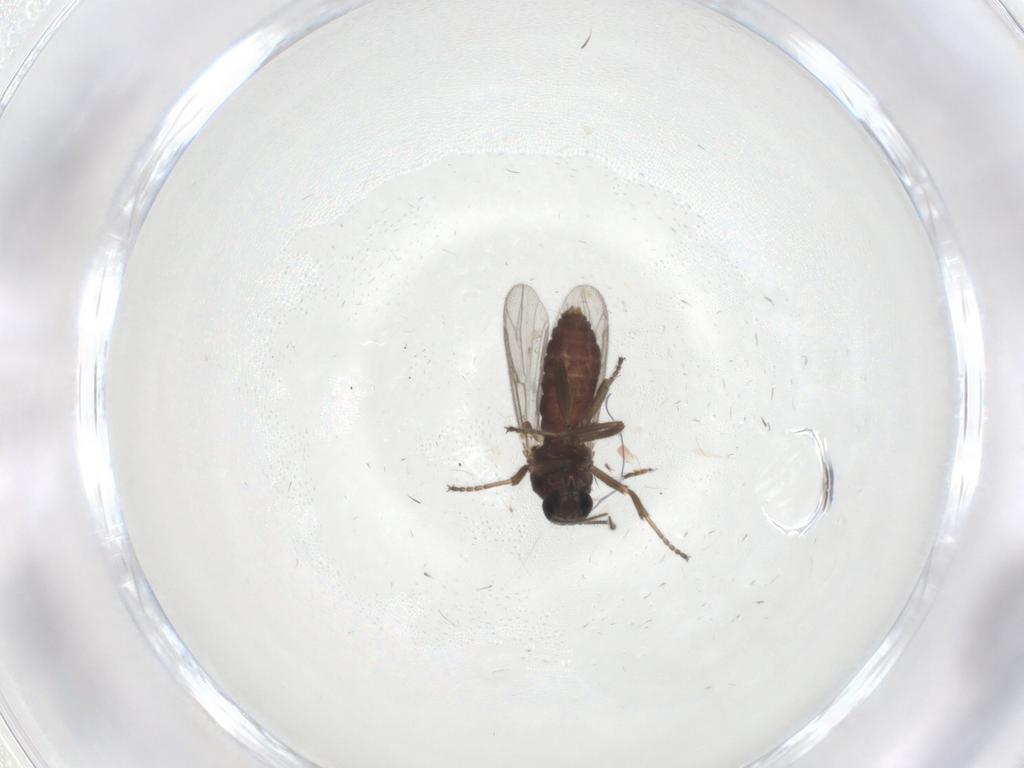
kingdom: Animalia
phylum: Arthropoda
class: Insecta
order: Diptera
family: Ceratopogonidae
